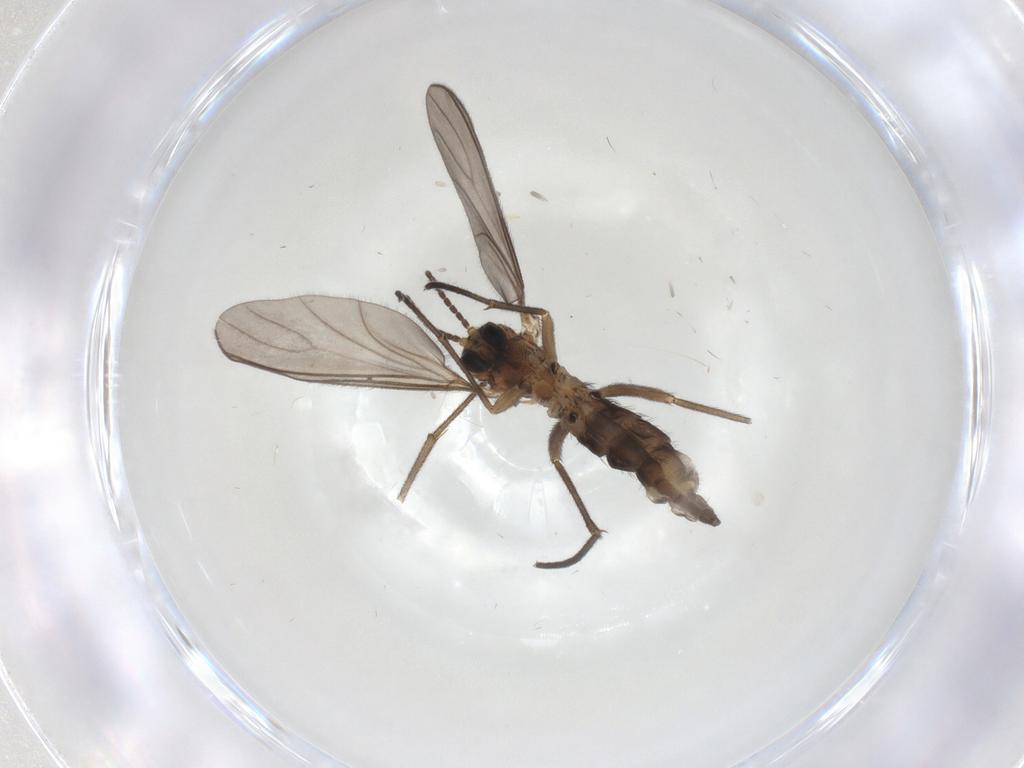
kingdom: Animalia
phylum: Arthropoda
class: Insecta
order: Diptera
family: Sciaridae
